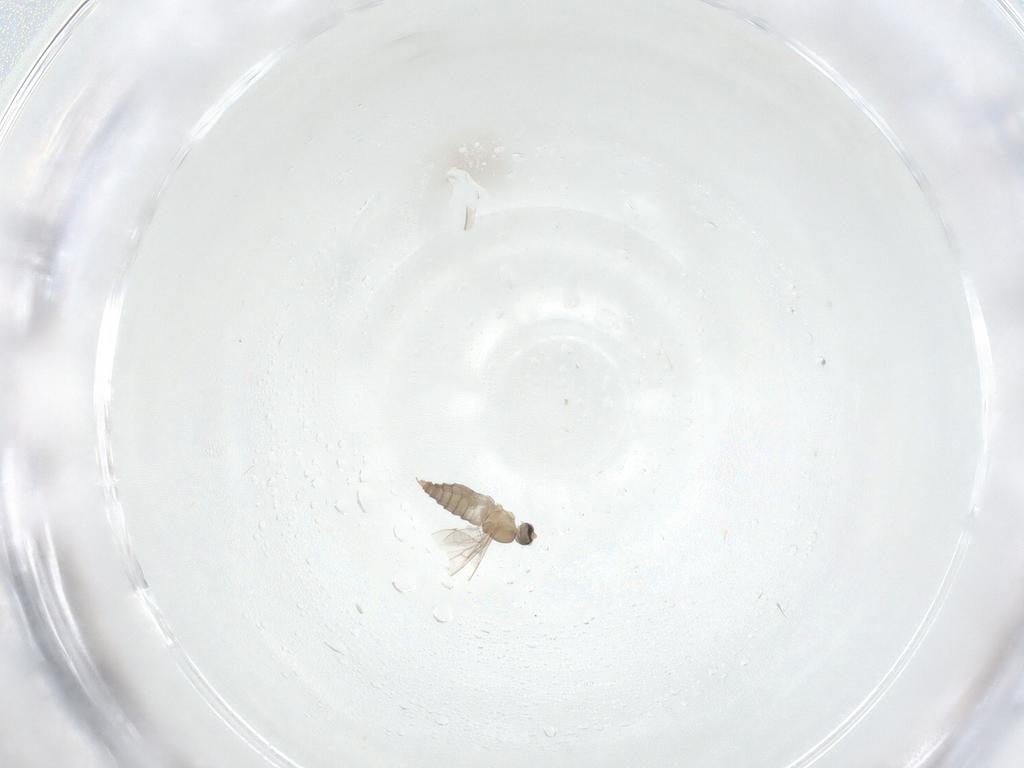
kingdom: Animalia
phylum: Arthropoda
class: Insecta
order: Diptera
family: Cecidomyiidae
